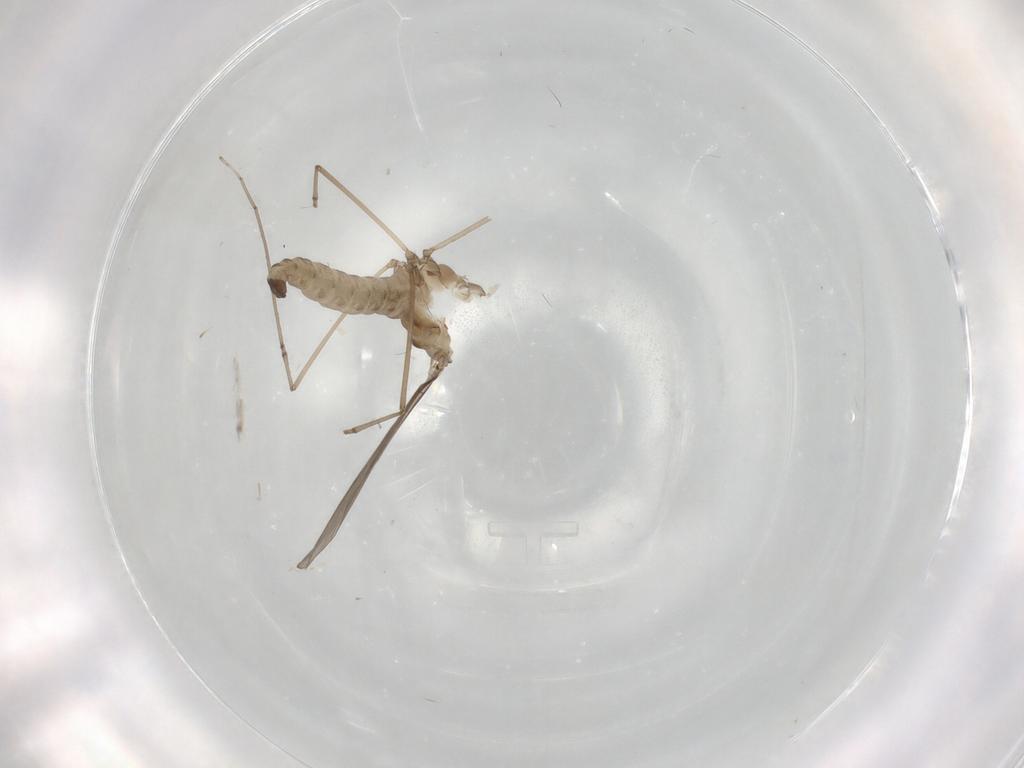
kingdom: Animalia
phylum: Arthropoda
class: Insecta
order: Diptera
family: Cecidomyiidae
